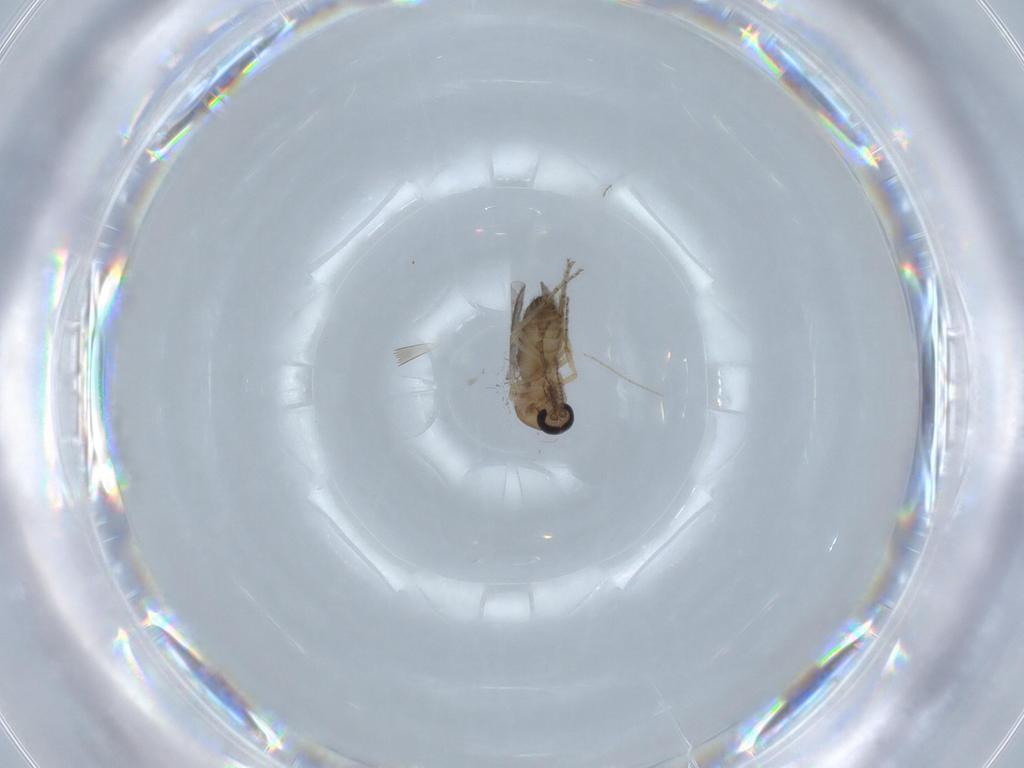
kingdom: Animalia
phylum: Arthropoda
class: Insecta
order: Diptera
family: Ceratopogonidae
